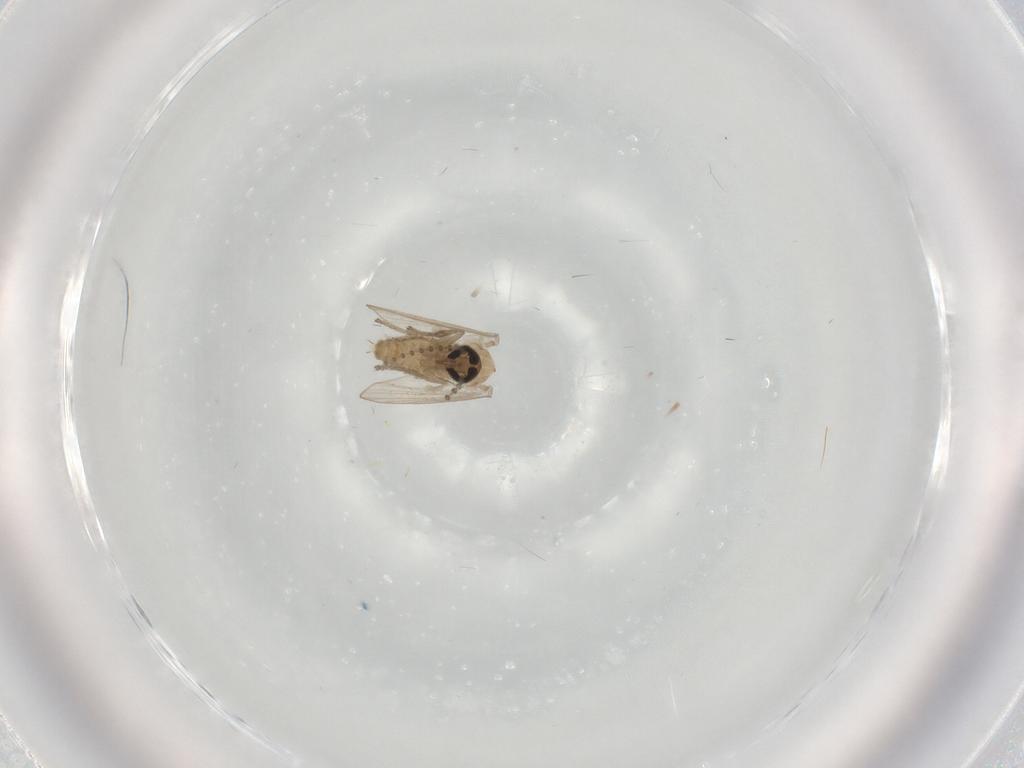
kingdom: Animalia
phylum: Arthropoda
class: Insecta
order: Diptera
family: Psychodidae
